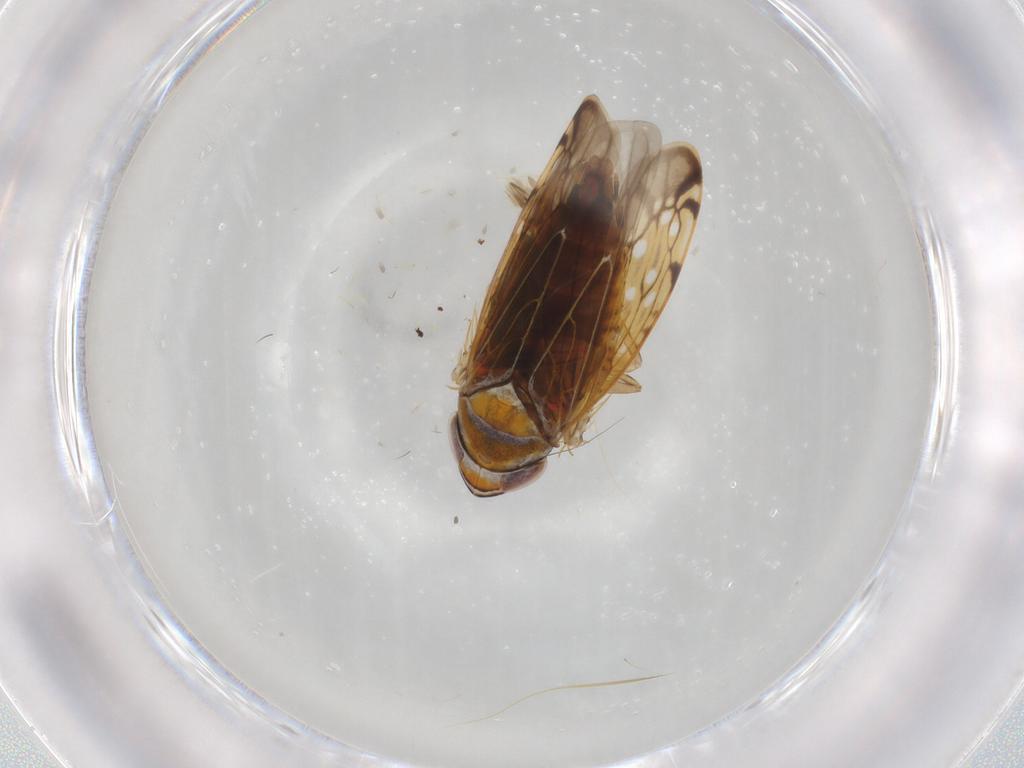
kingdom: Animalia
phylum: Arthropoda
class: Insecta
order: Hemiptera
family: Cicadellidae
